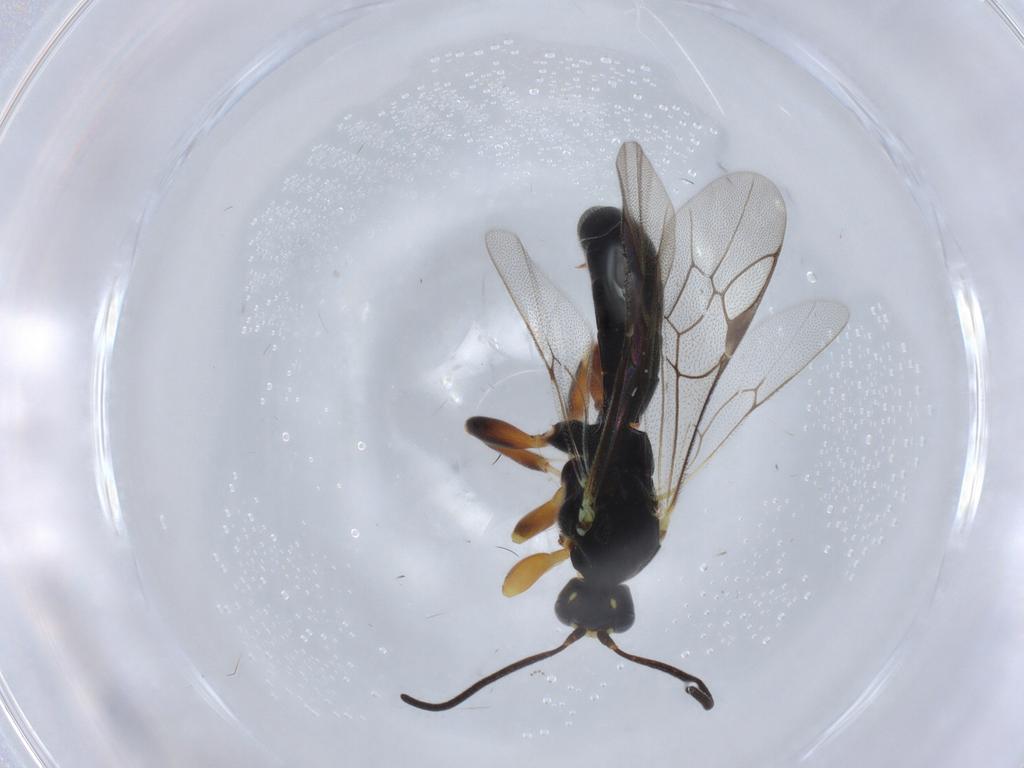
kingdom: Animalia
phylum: Arthropoda
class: Insecta
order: Hymenoptera
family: Ichneumonidae
